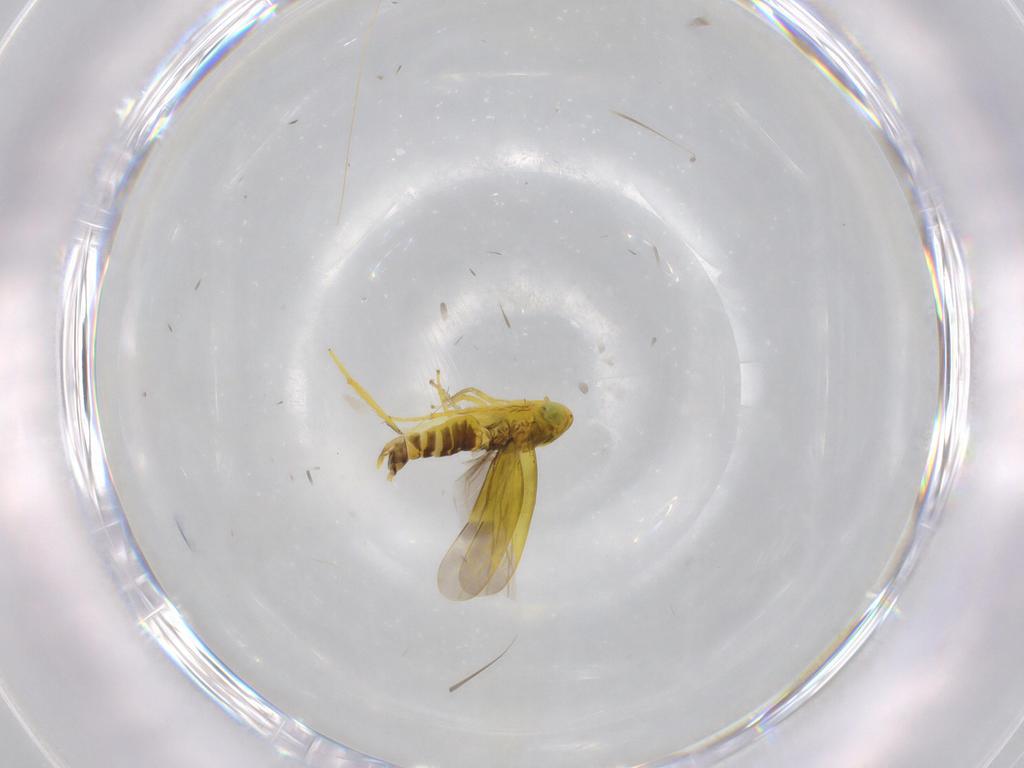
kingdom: Animalia
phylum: Arthropoda
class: Insecta
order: Hemiptera
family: Cicadellidae
